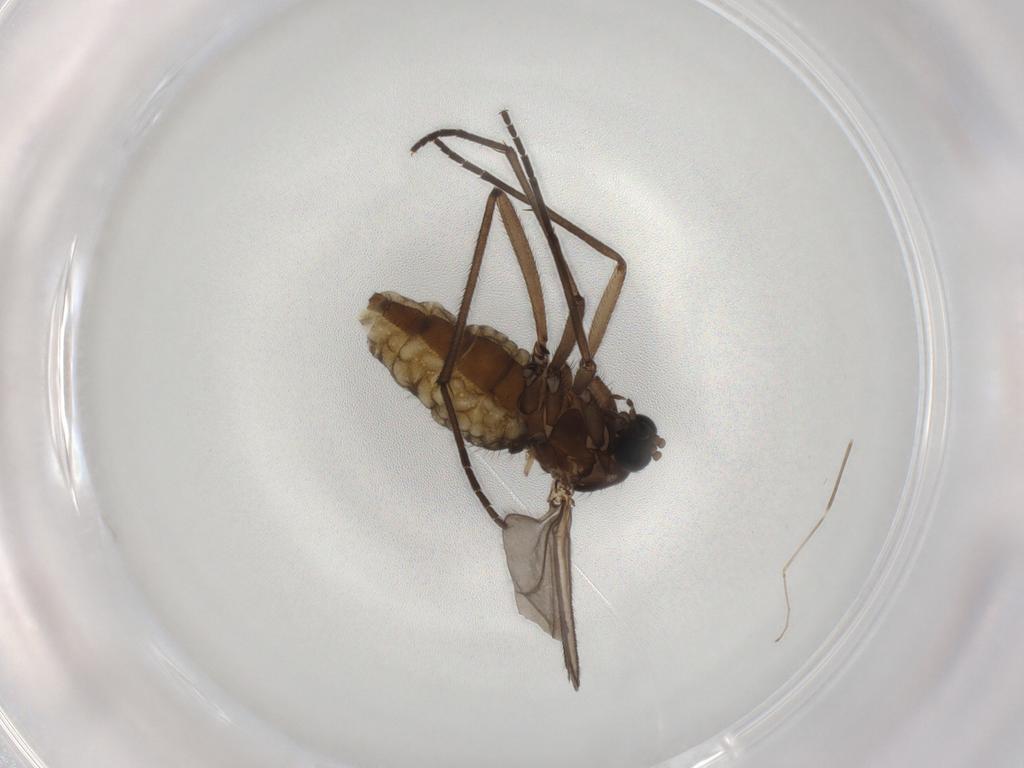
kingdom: Animalia
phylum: Arthropoda
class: Insecta
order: Diptera
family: Sciaridae
